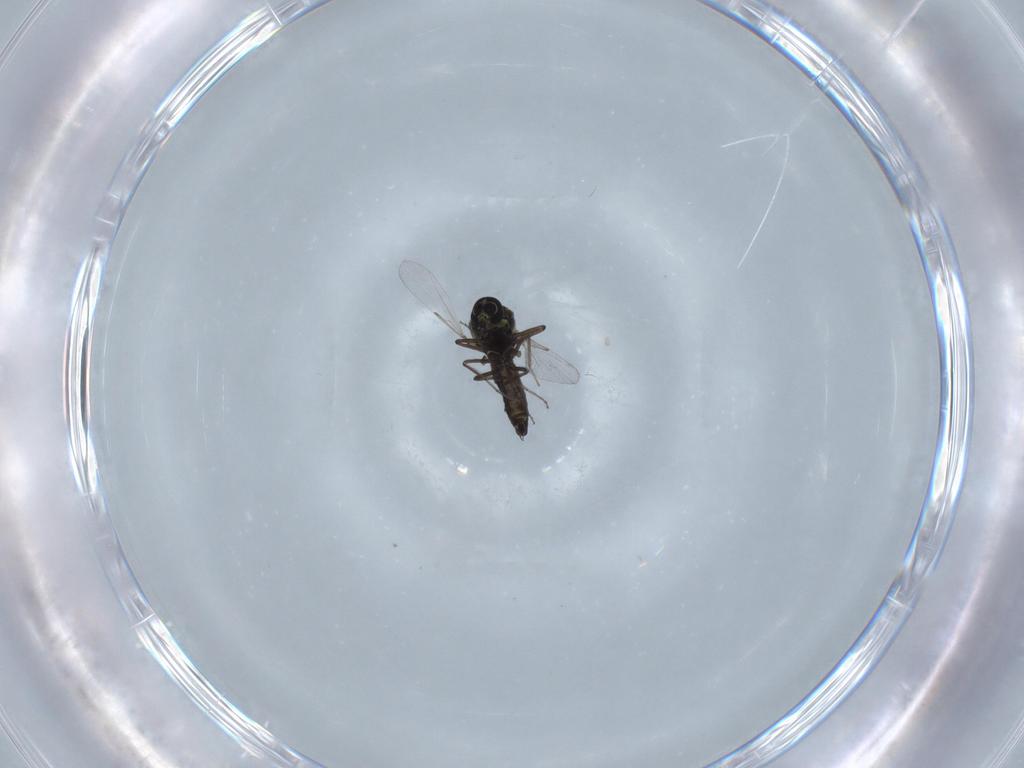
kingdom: Animalia
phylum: Arthropoda
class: Insecta
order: Diptera
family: Ceratopogonidae
